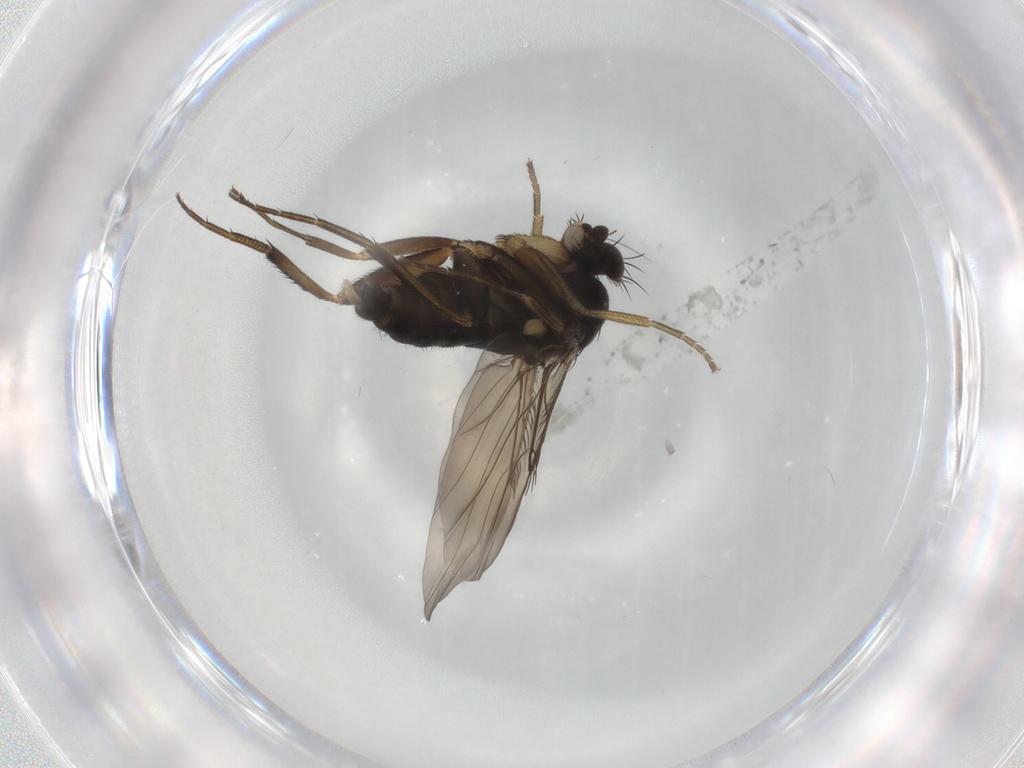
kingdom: Animalia
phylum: Arthropoda
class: Insecta
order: Diptera
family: Phoridae
